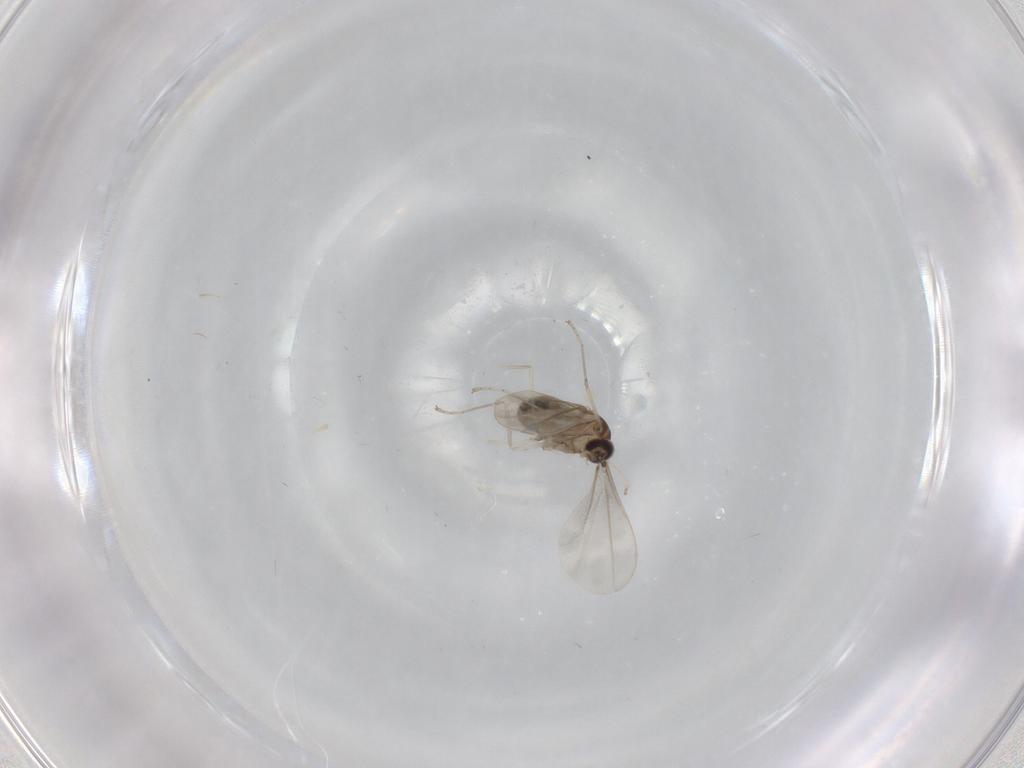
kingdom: Animalia
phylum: Arthropoda
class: Insecta
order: Diptera
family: Cecidomyiidae
